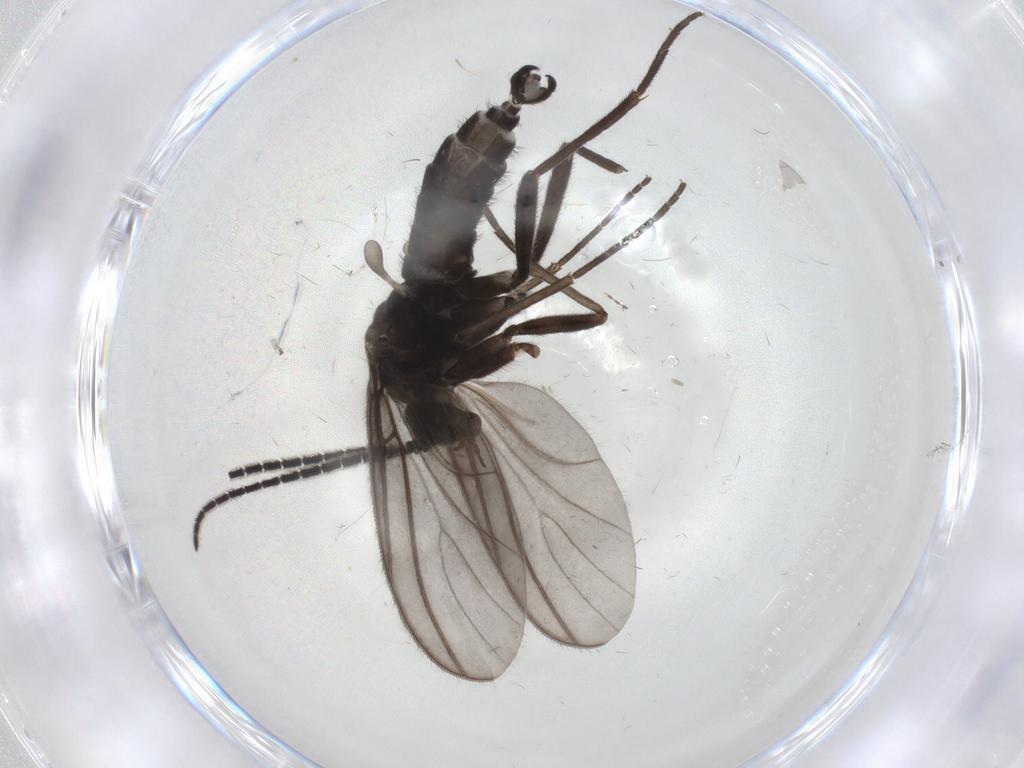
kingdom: Animalia
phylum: Arthropoda
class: Insecta
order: Diptera
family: Sciaridae
